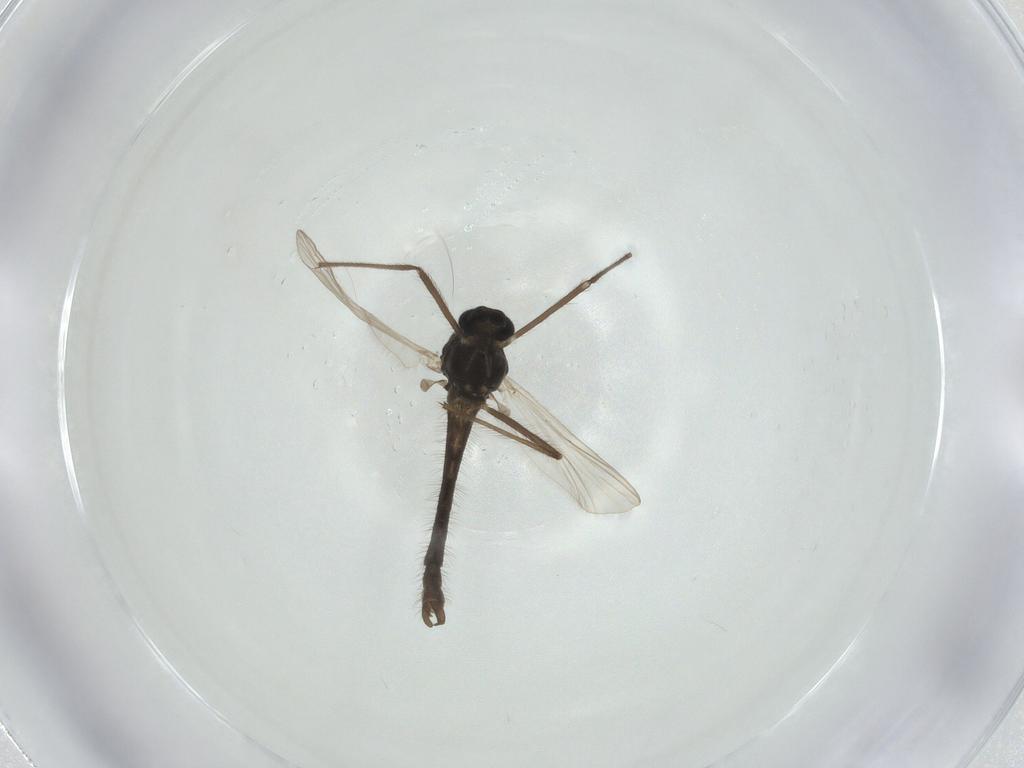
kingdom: Animalia
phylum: Arthropoda
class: Insecta
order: Diptera
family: Chironomidae
